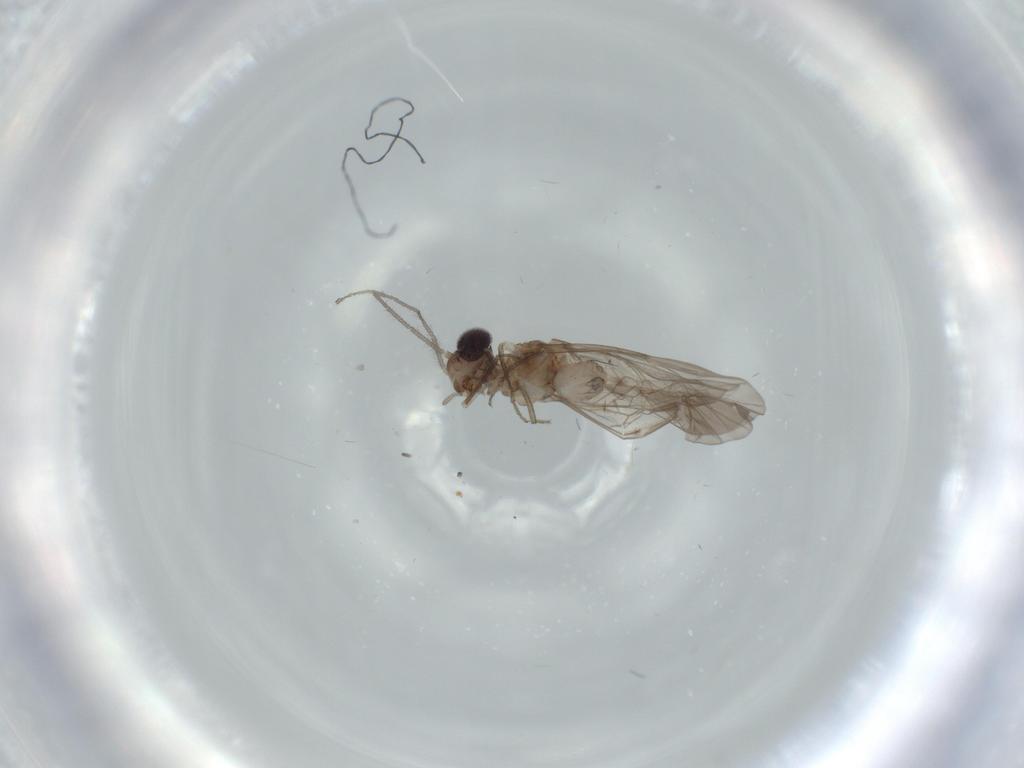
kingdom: Animalia
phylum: Arthropoda
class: Insecta
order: Psocodea
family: Peripsocidae
